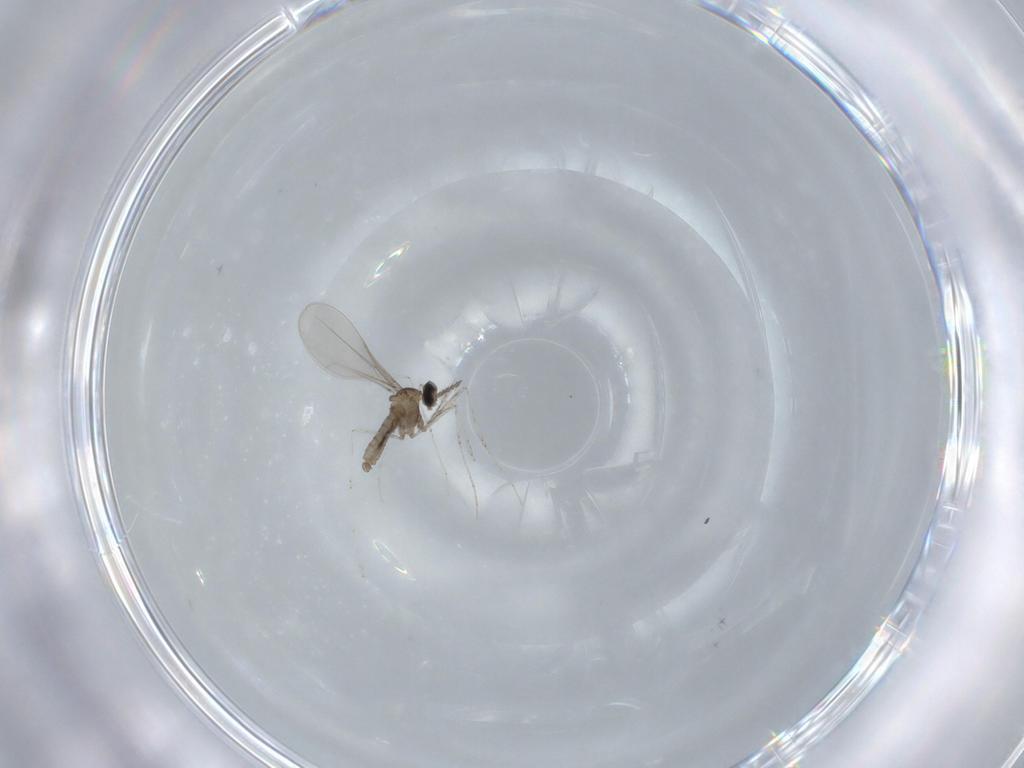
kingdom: Animalia
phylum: Arthropoda
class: Insecta
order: Diptera
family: Cecidomyiidae
